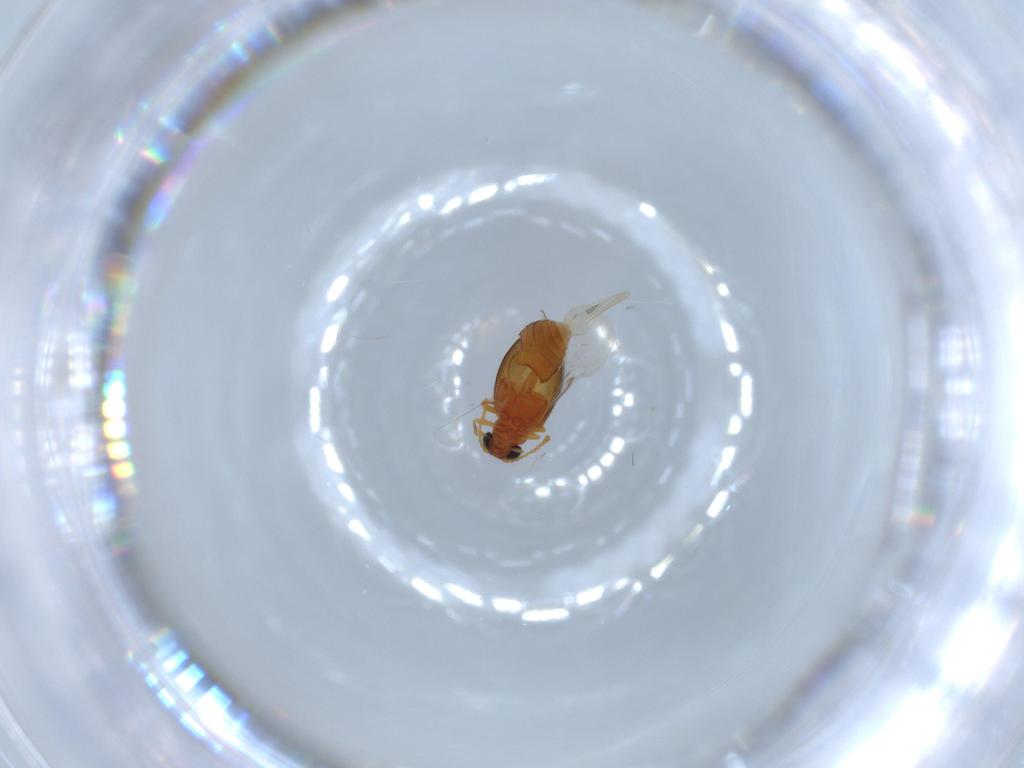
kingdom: Animalia
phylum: Arthropoda
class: Insecta
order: Coleoptera
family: Aderidae
